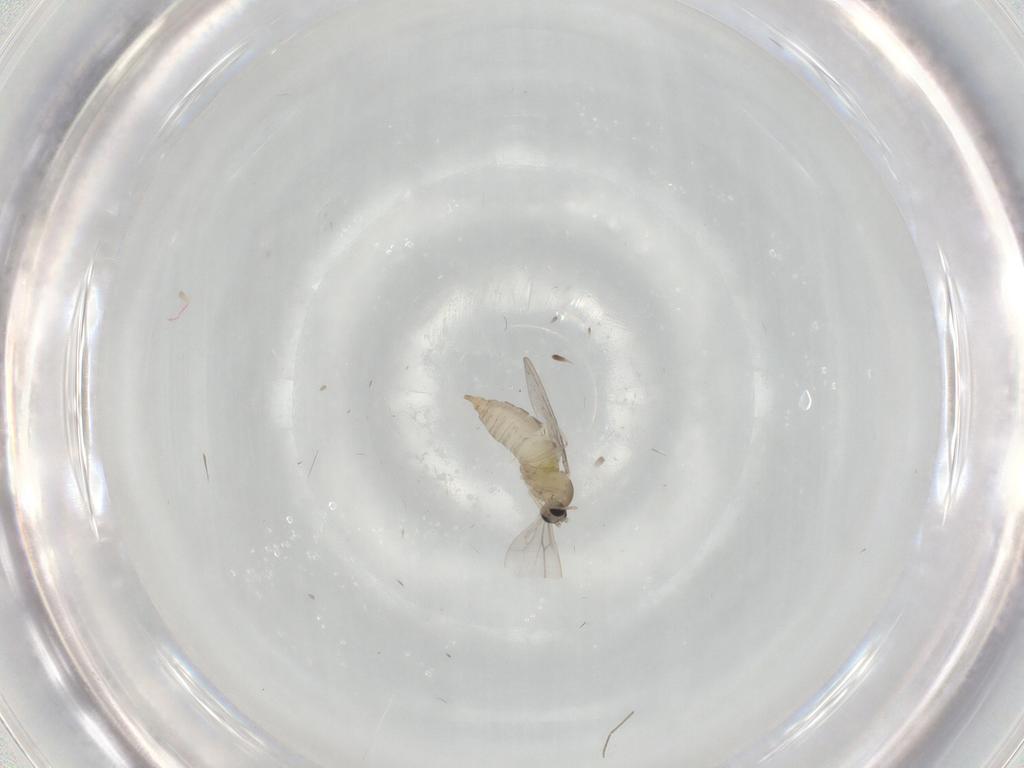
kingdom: Animalia
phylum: Arthropoda
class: Insecta
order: Diptera
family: Cecidomyiidae
